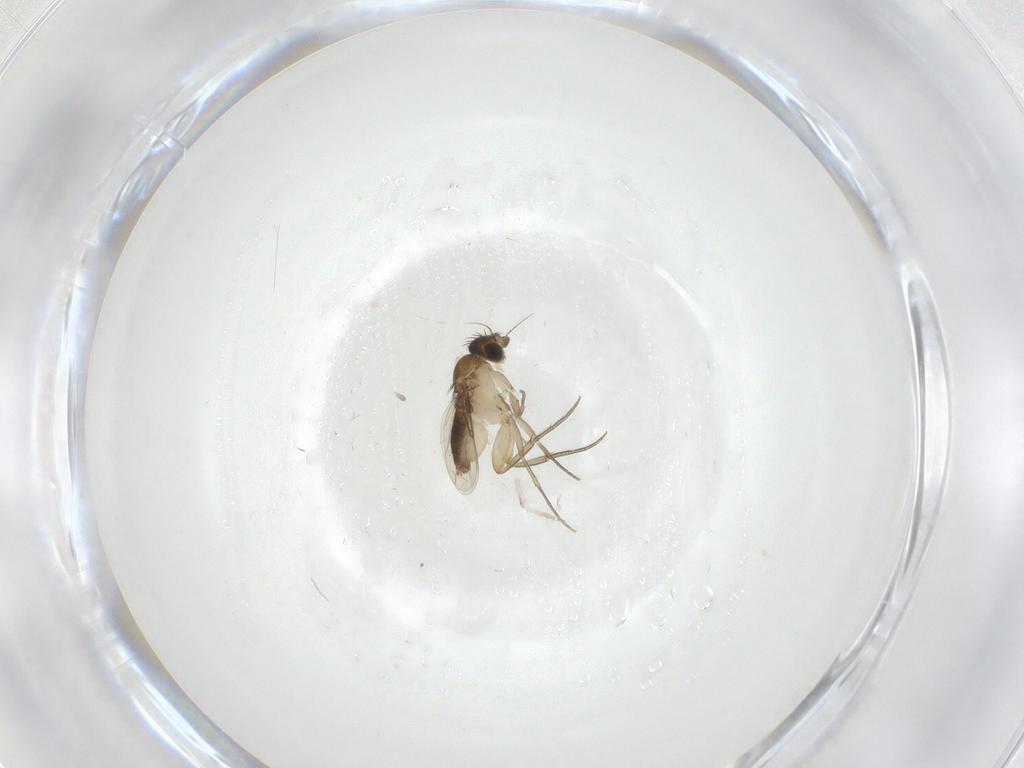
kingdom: Animalia
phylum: Arthropoda
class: Insecta
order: Diptera
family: Phoridae
